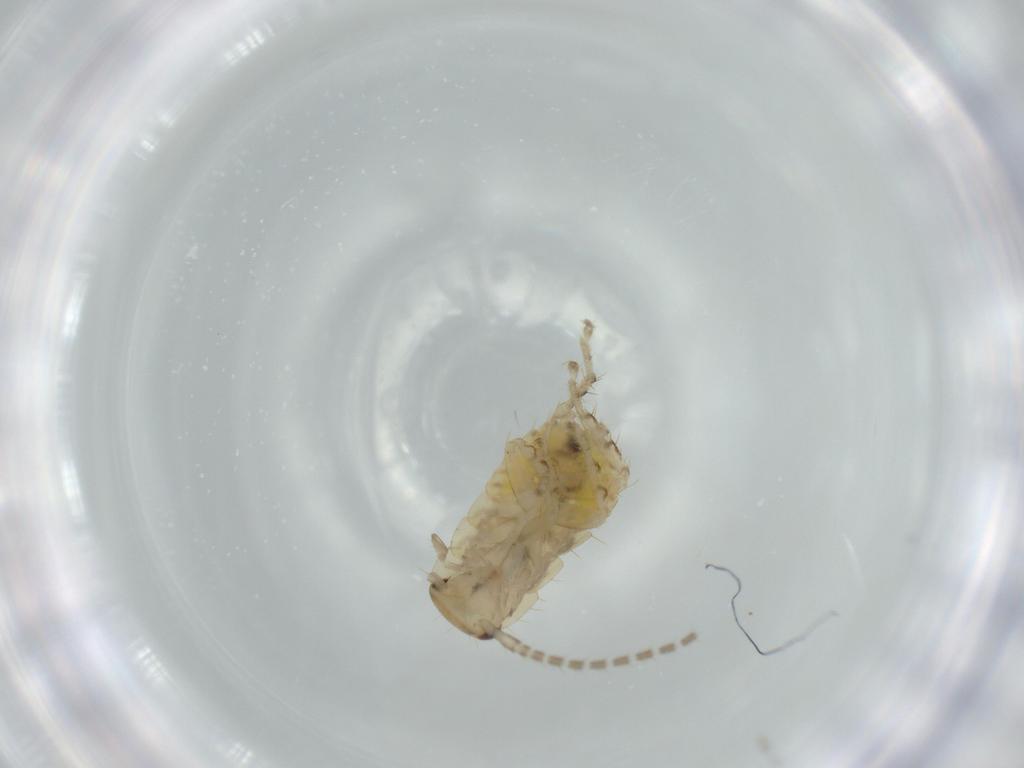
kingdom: Animalia
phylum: Arthropoda
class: Insecta
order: Blattodea
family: Ectobiidae
